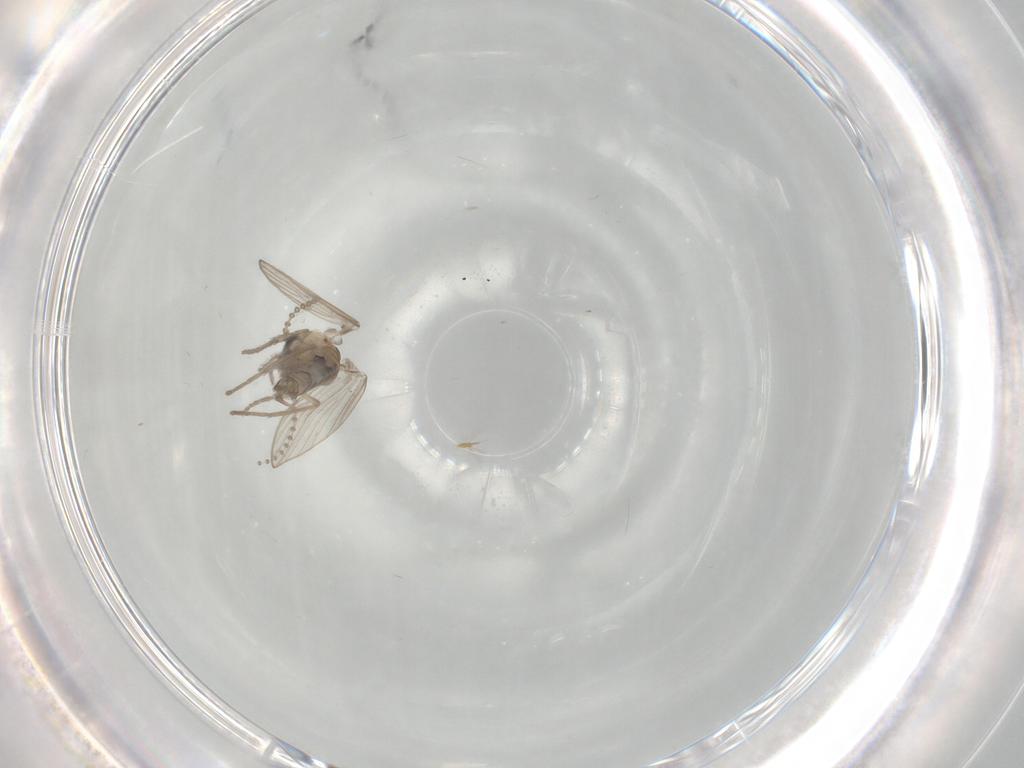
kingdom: Animalia
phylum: Arthropoda
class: Insecta
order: Diptera
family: Psychodidae
